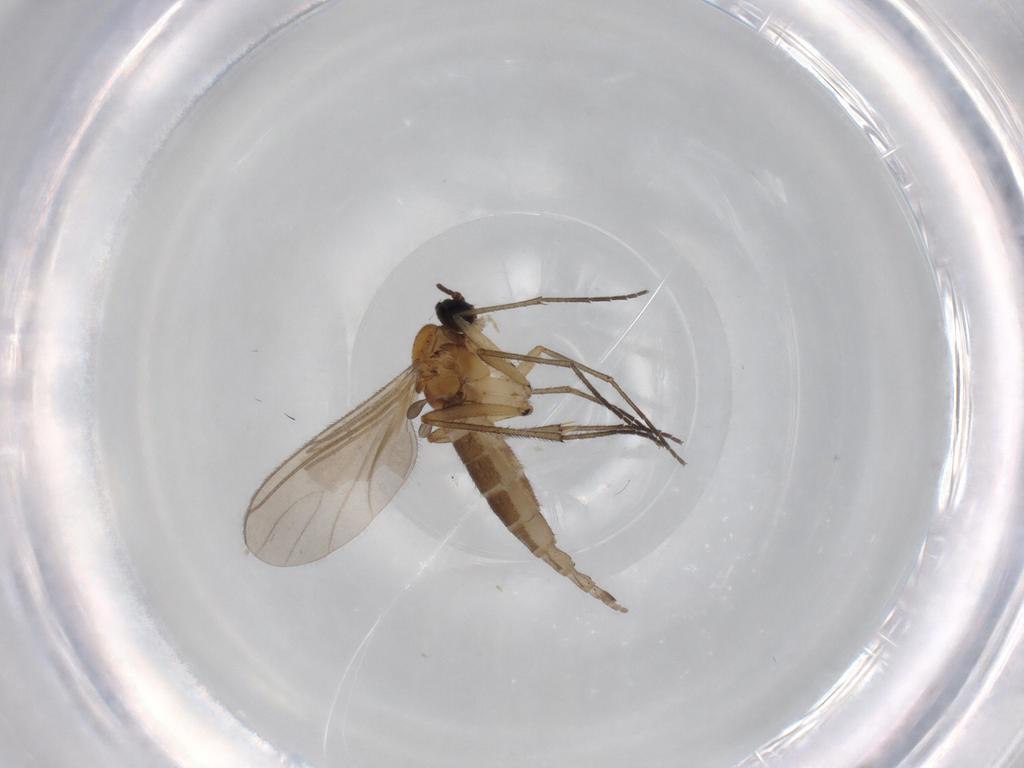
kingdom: Animalia
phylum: Arthropoda
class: Insecta
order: Diptera
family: Sciaridae
